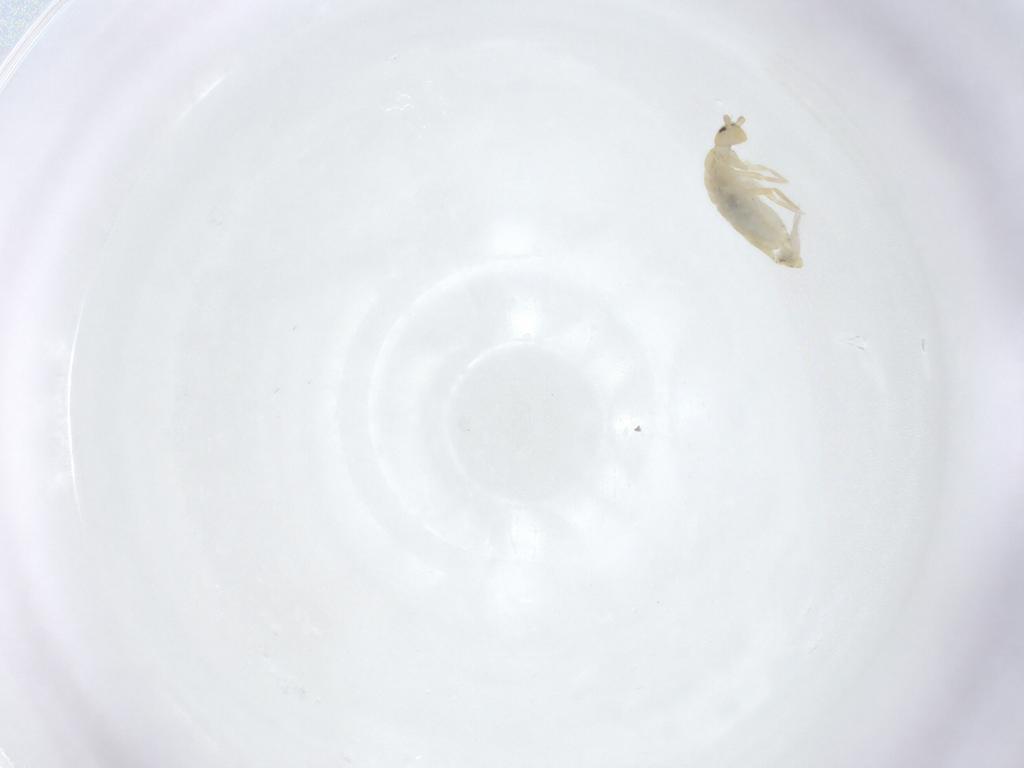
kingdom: Animalia
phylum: Arthropoda
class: Collembola
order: Entomobryomorpha
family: Entomobryidae
